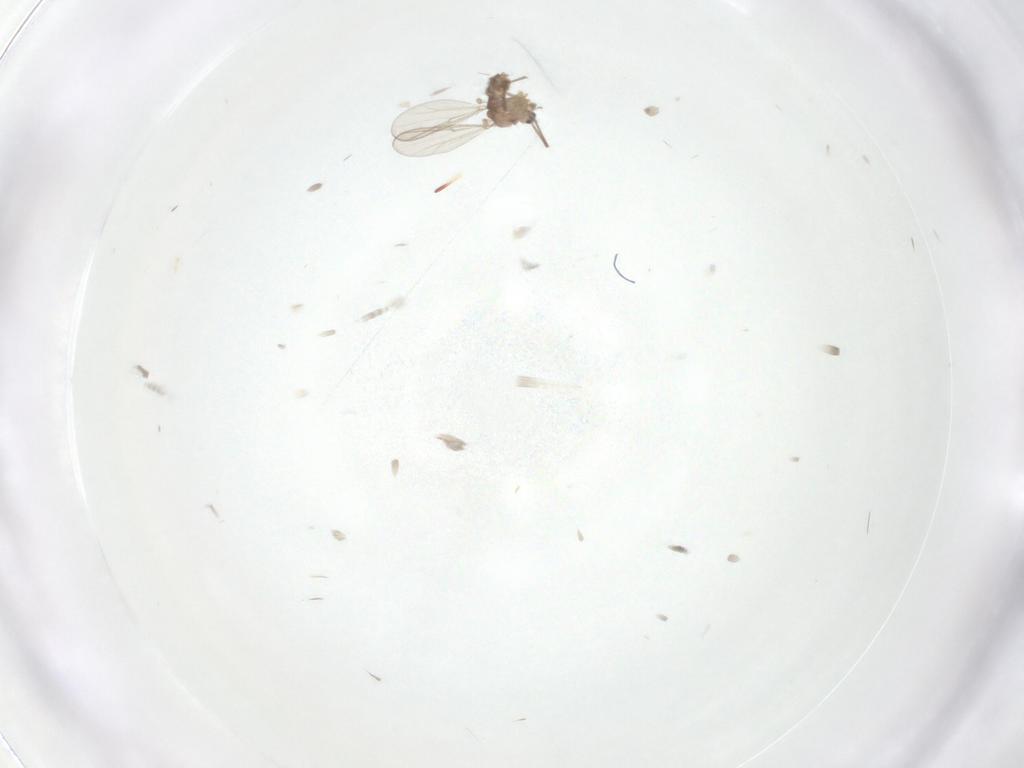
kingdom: Animalia
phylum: Arthropoda
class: Insecta
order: Diptera
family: Chironomidae
